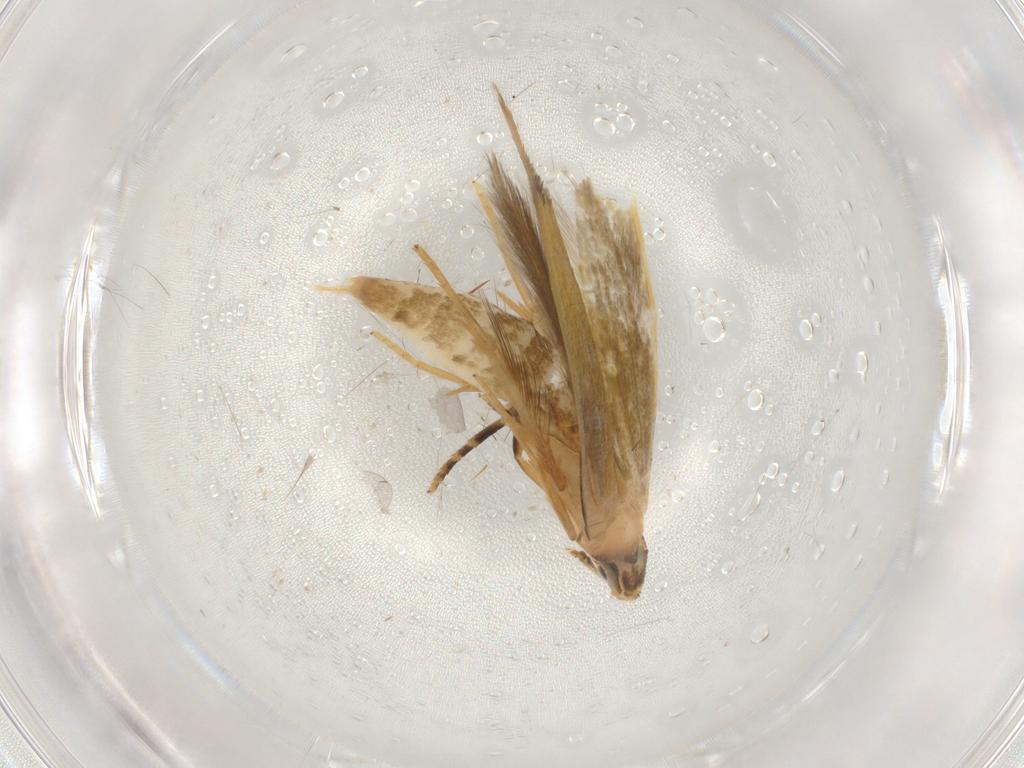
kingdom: Animalia
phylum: Arthropoda
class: Insecta
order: Lepidoptera
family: Tineidae
